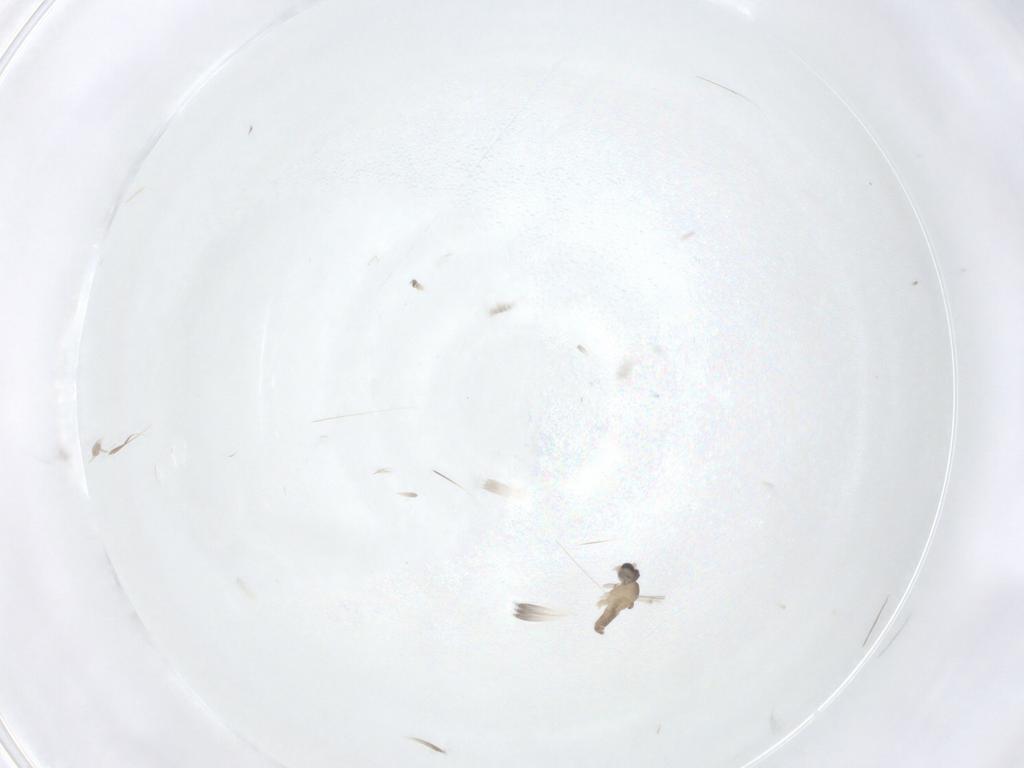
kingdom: Animalia
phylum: Arthropoda
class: Insecta
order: Diptera
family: Cecidomyiidae
